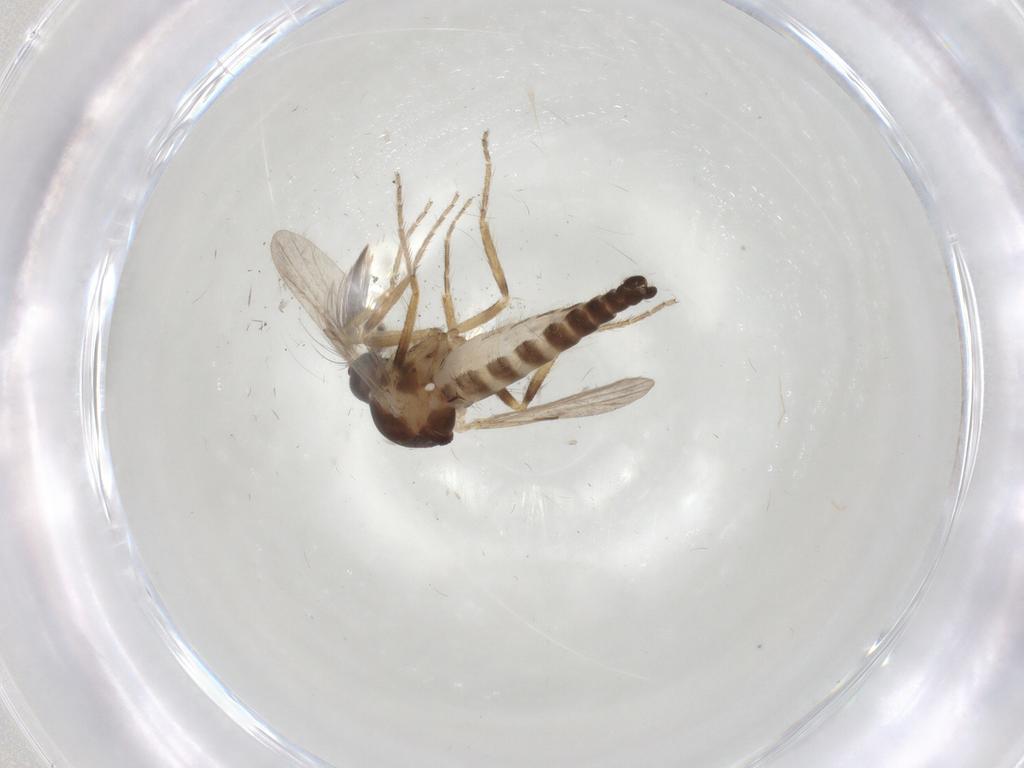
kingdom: Animalia
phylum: Arthropoda
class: Insecta
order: Diptera
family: Ceratopogonidae
